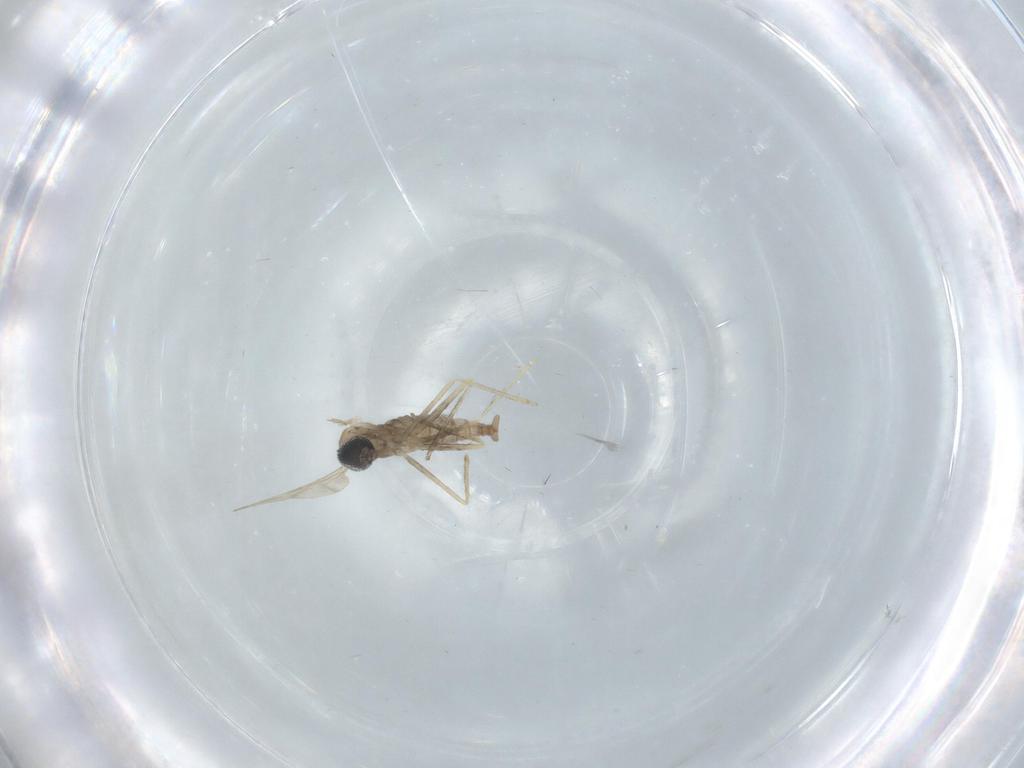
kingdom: Animalia
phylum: Arthropoda
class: Insecta
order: Diptera
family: Cecidomyiidae
